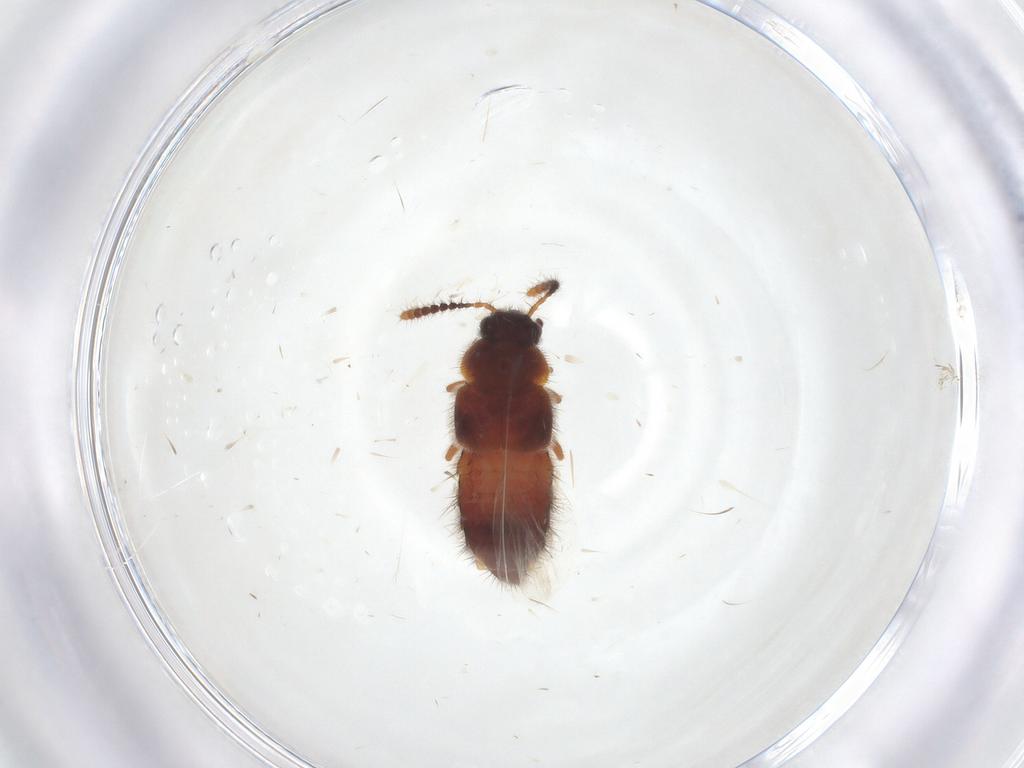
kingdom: Animalia
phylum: Arthropoda
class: Insecta
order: Coleoptera
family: Staphylinidae
